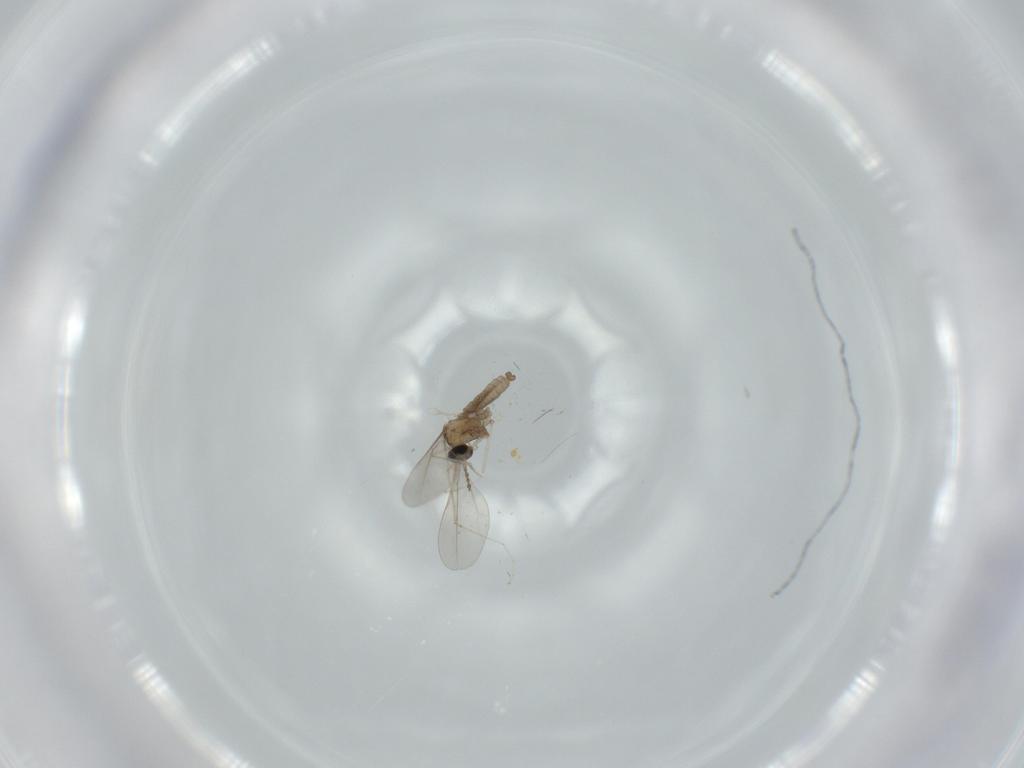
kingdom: Animalia
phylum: Arthropoda
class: Insecta
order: Diptera
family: Cecidomyiidae
